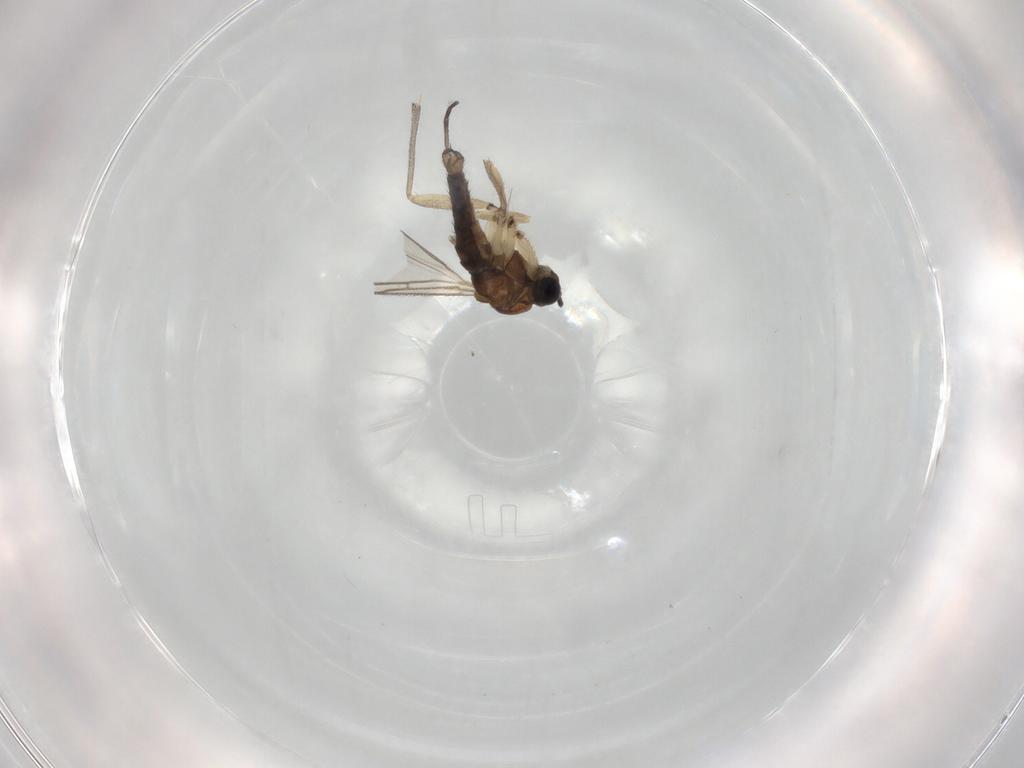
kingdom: Animalia
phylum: Arthropoda
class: Insecta
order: Diptera
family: Sciaridae
